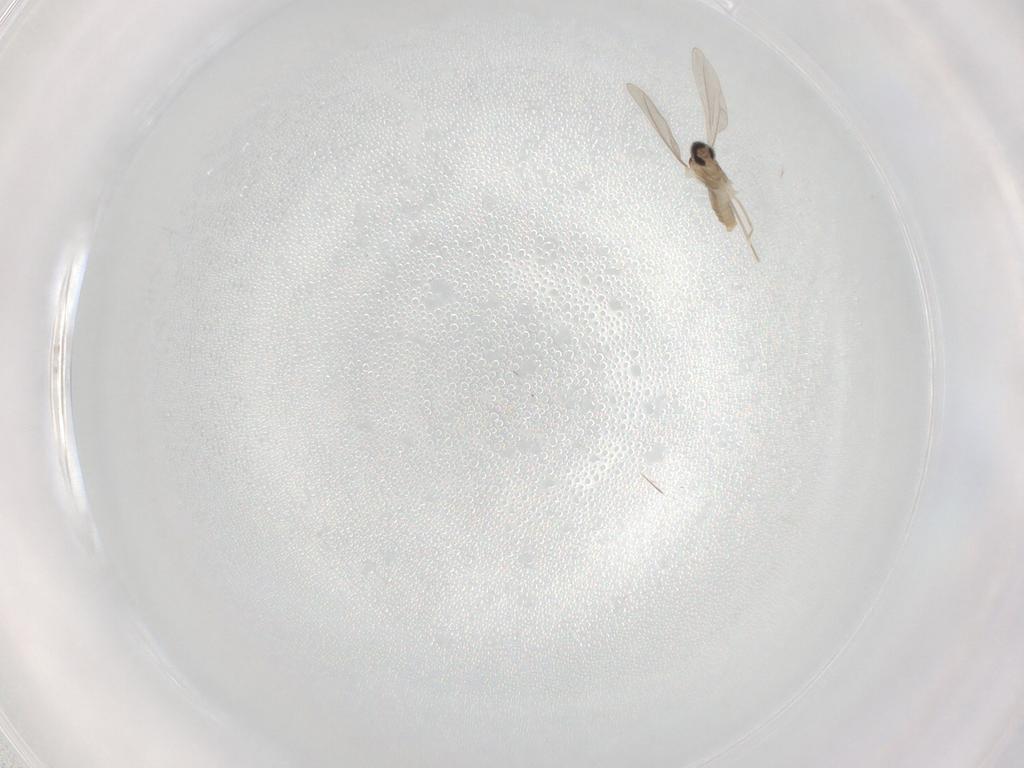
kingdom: Animalia
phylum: Arthropoda
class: Insecta
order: Diptera
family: Cecidomyiidae
